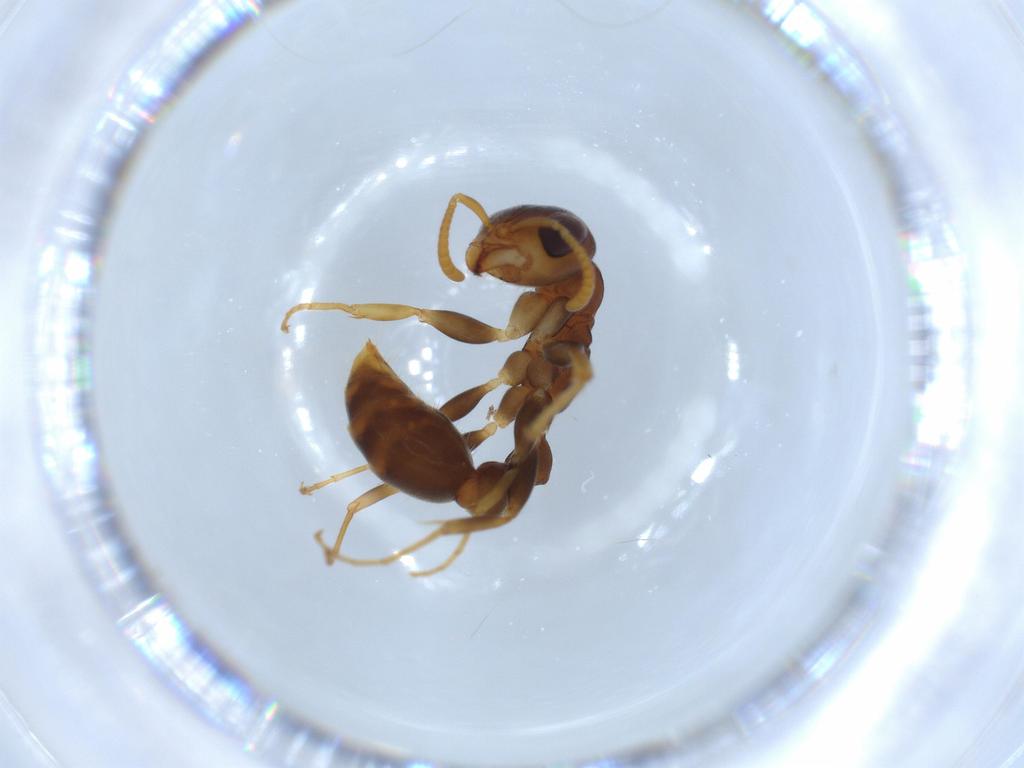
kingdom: Animalia
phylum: Arthropoda
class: Insecta
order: Hymenoptera
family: Formicidae
